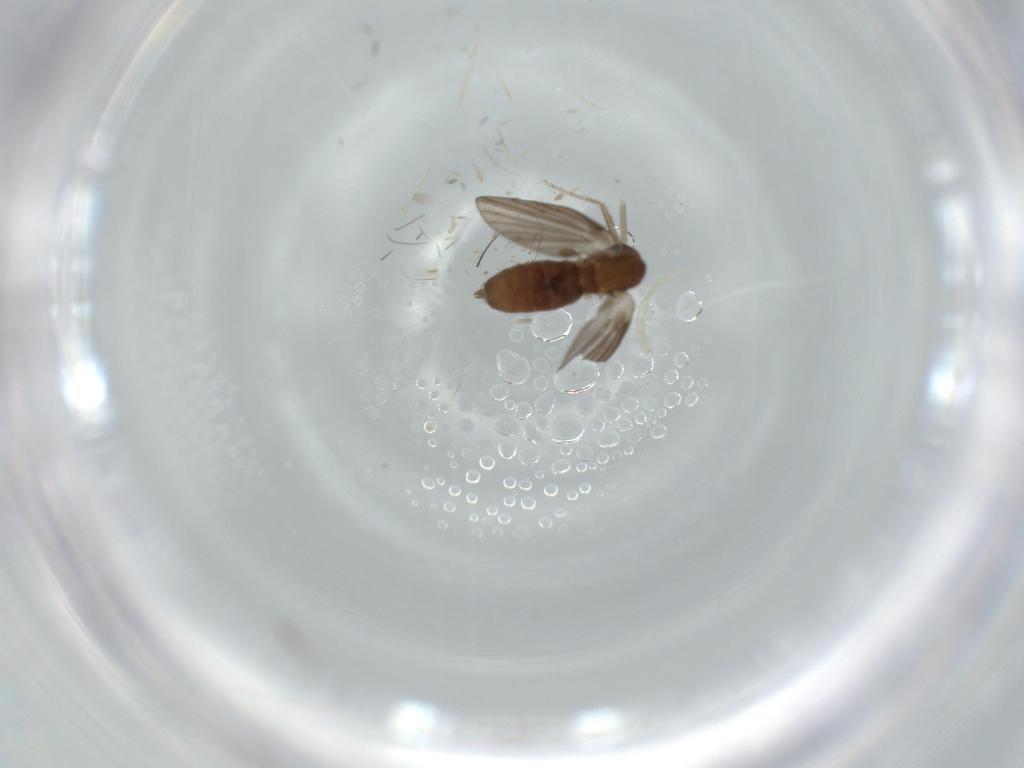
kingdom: Animalia
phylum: Arthropoda
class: Insecta
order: Diptera
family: Ceratopogonidae
